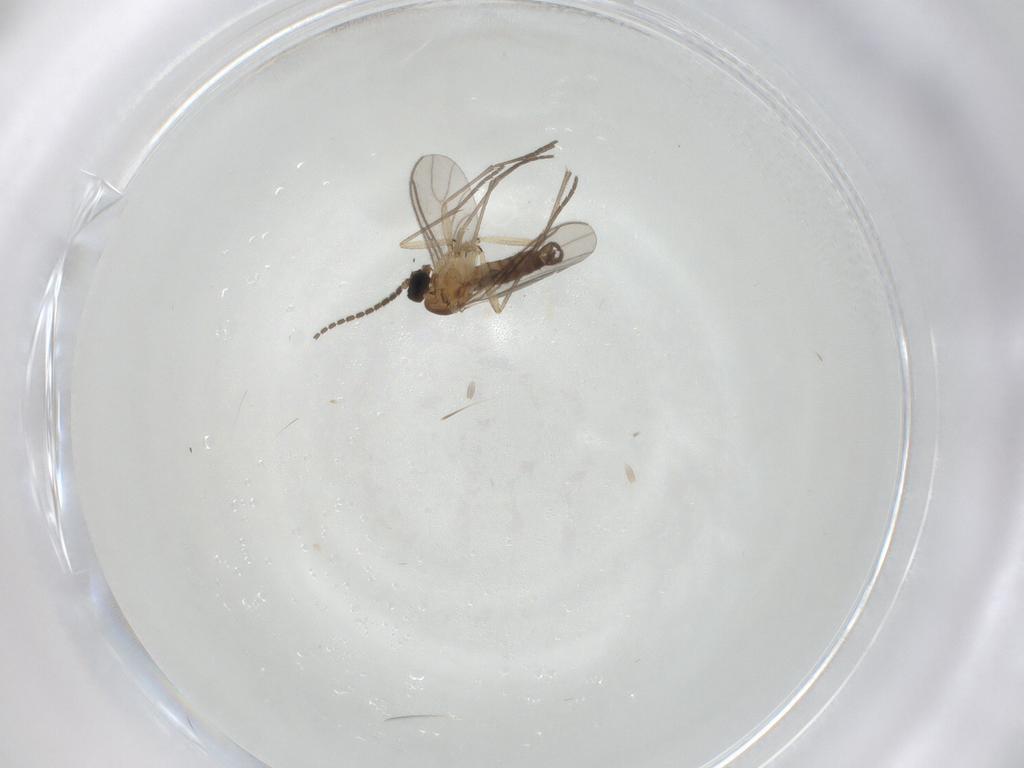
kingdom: Animalia
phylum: Arthropoda
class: Insecta
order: Diptera
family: Sciaridae
